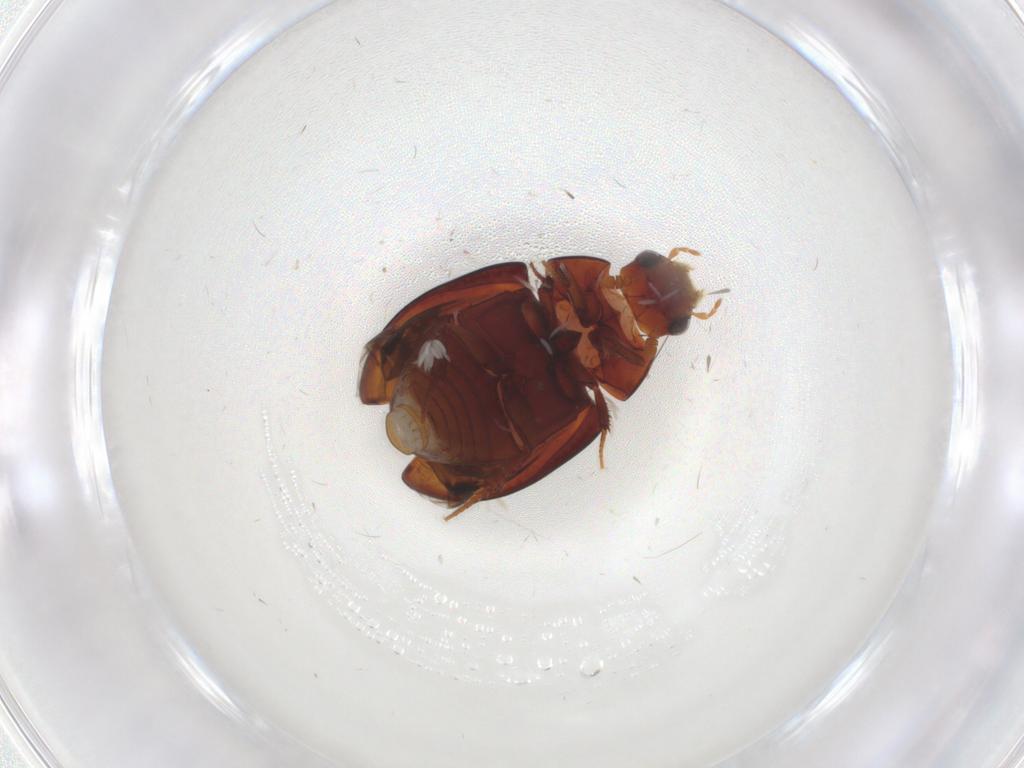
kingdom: Animalia
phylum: Arthropoda
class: Insecta
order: Coleoptera
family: Hydrophilidae
